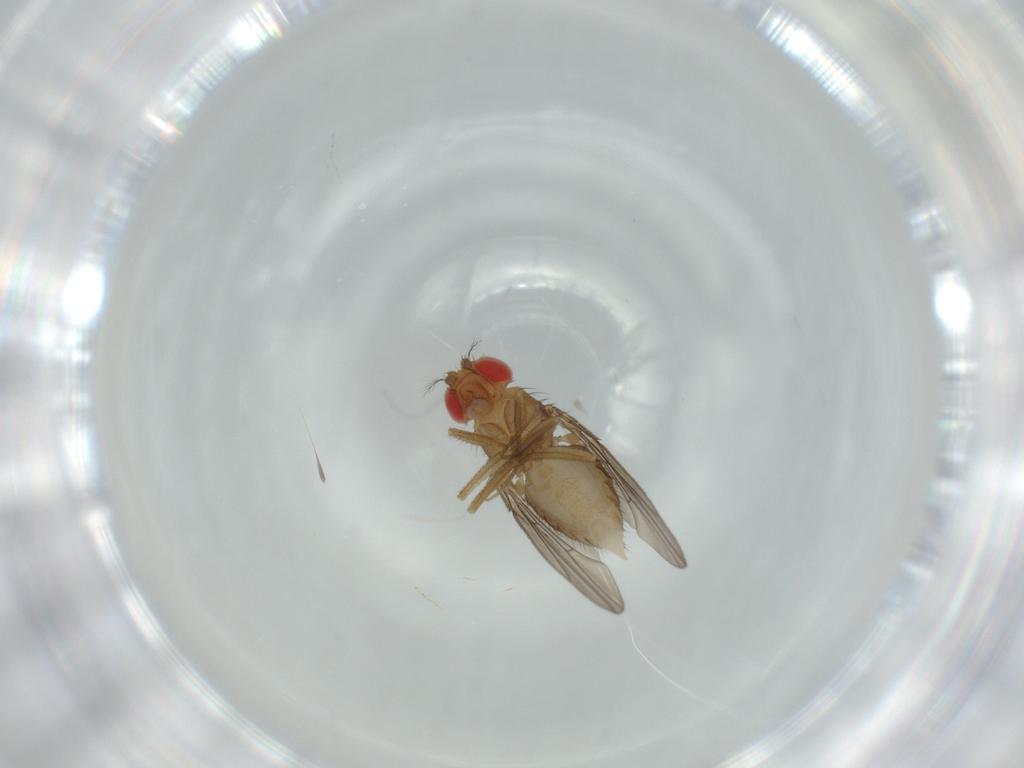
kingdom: Animalia
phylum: Arthropoda
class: Insecta
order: Diptera
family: Drosophilidae
